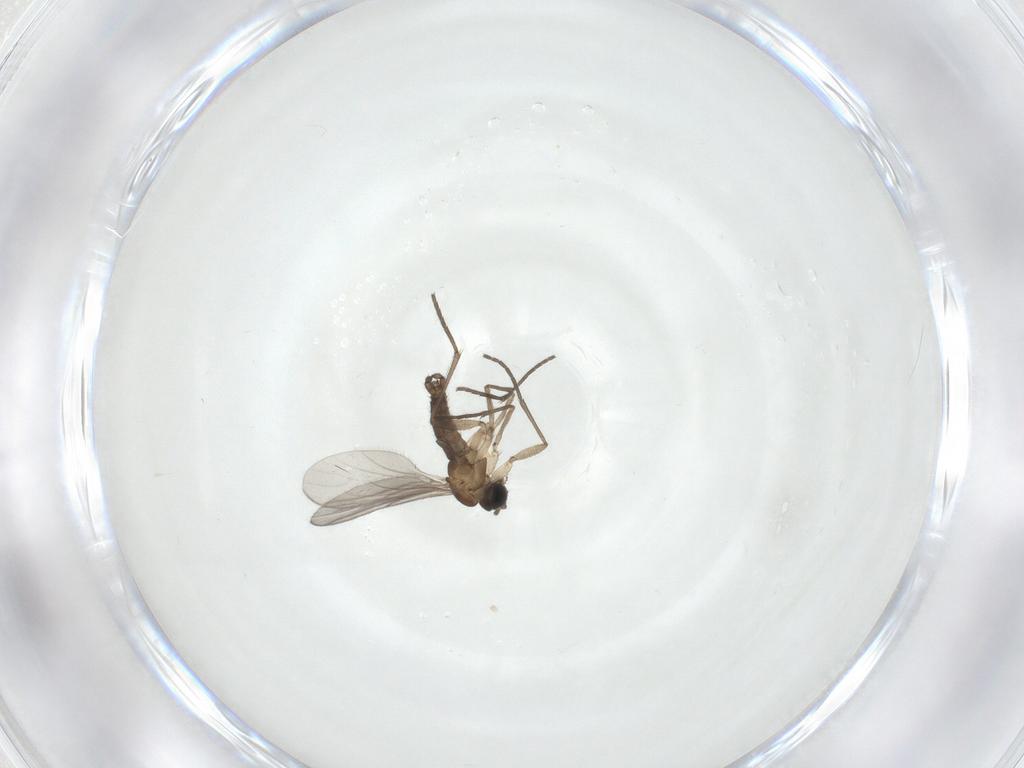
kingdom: Animalia
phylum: Arthropoda
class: Insecta
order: Diptera
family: Sciaridae
